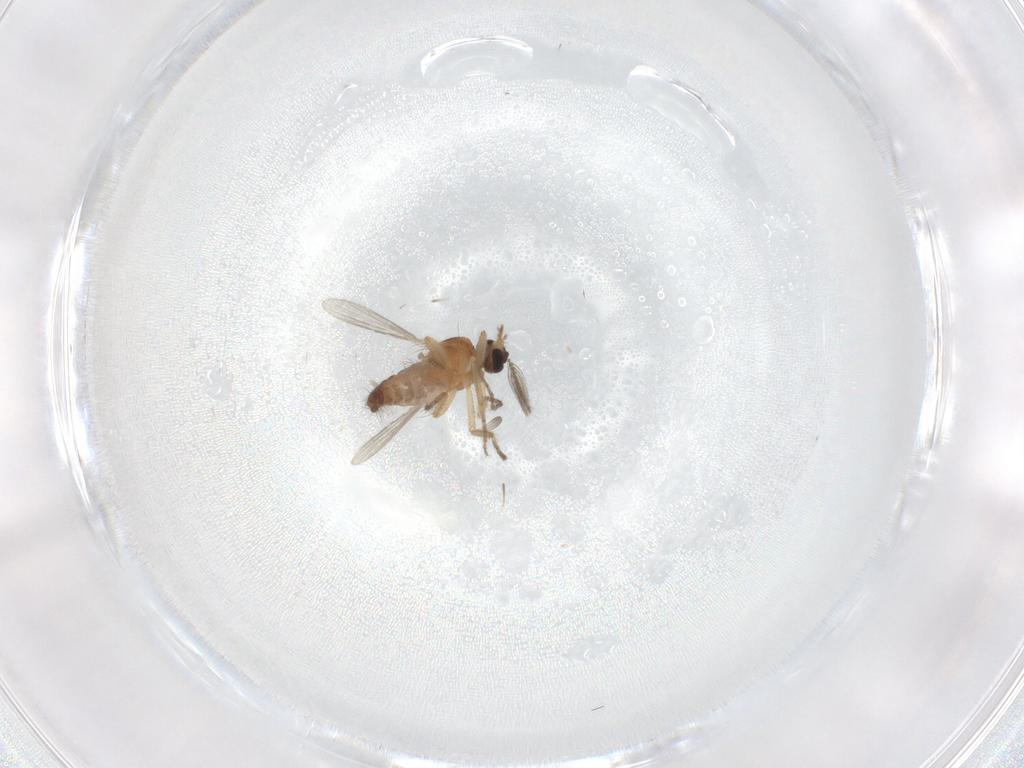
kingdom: Animalia
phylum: Arthropoda
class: Insecta
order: Diptera
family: Ceratopogonidae
